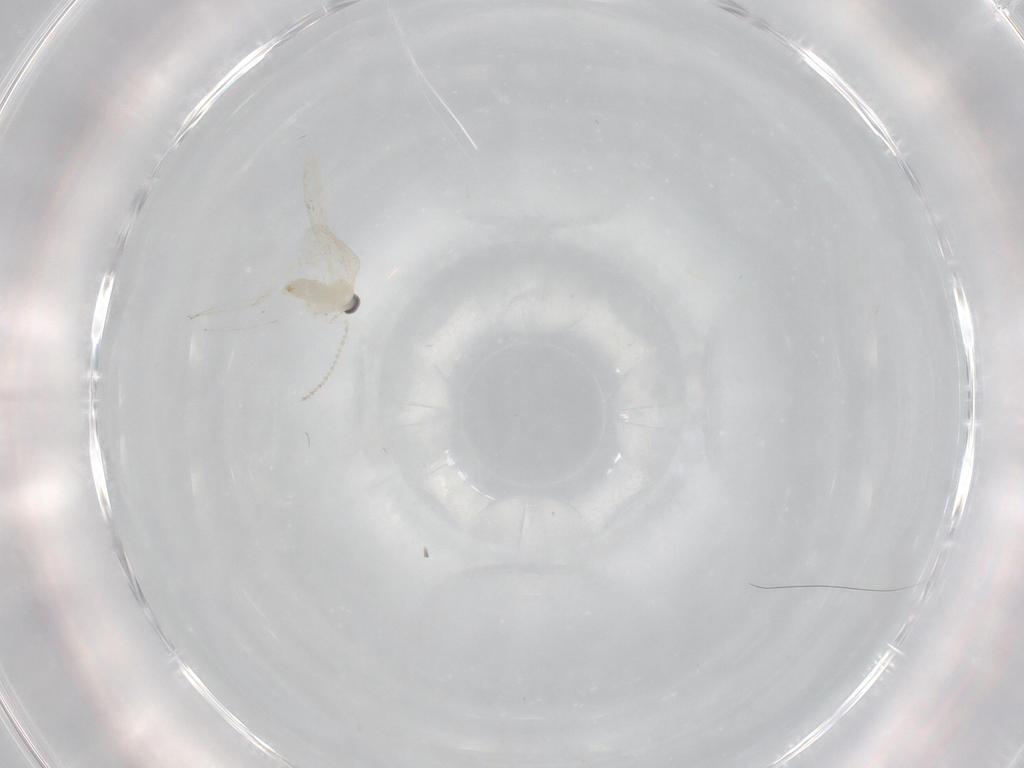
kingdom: Animalia
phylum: Arthropoda
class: Insecta
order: Diptera
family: Cecidomyiidae
